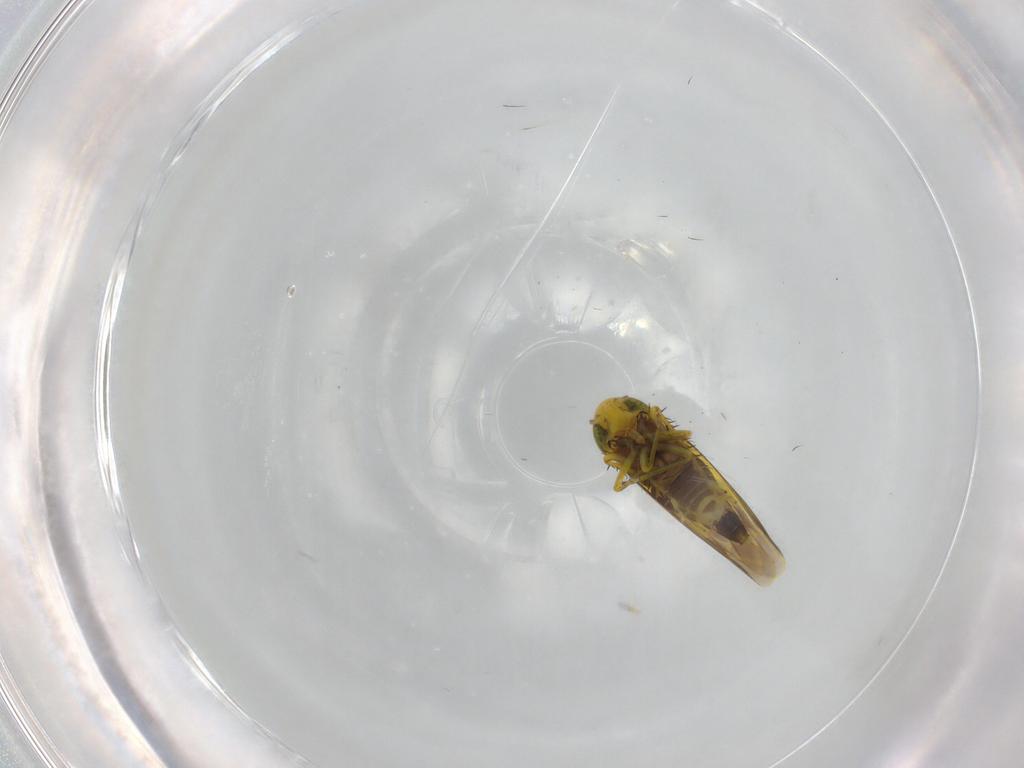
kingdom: Animalia
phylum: Arthropoda
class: Insecta
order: Hemiptera
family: Cicadellidae
